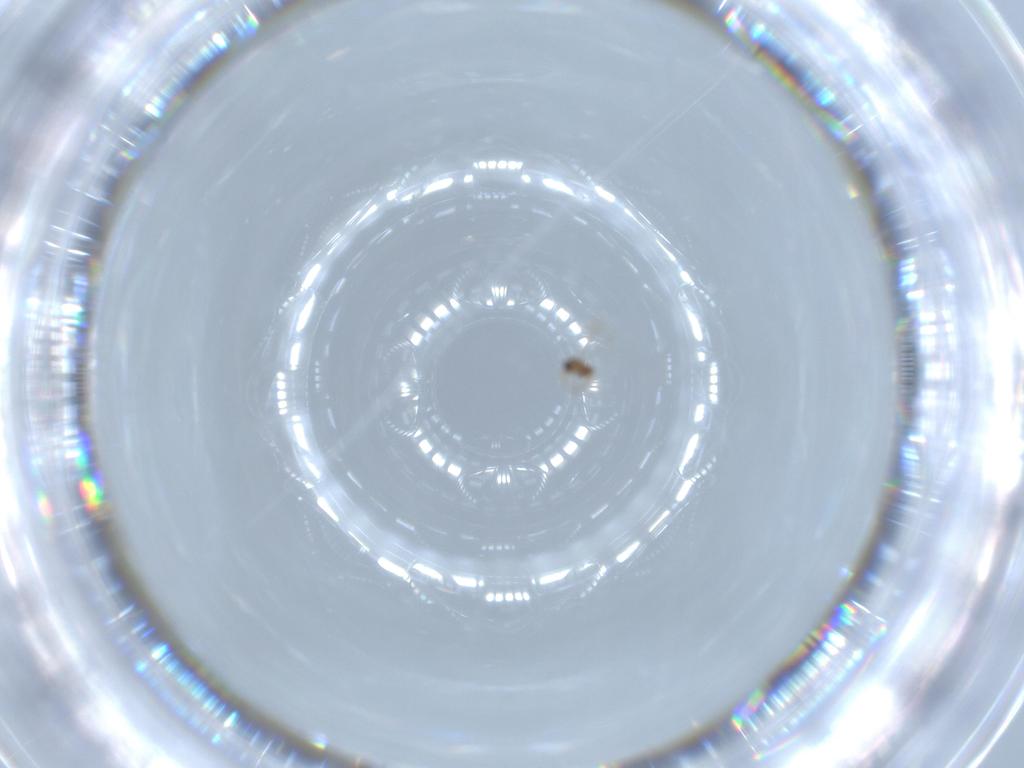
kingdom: Animalia
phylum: Arthropoda
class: Insecta
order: Hymenoptera
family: Mymaridae
